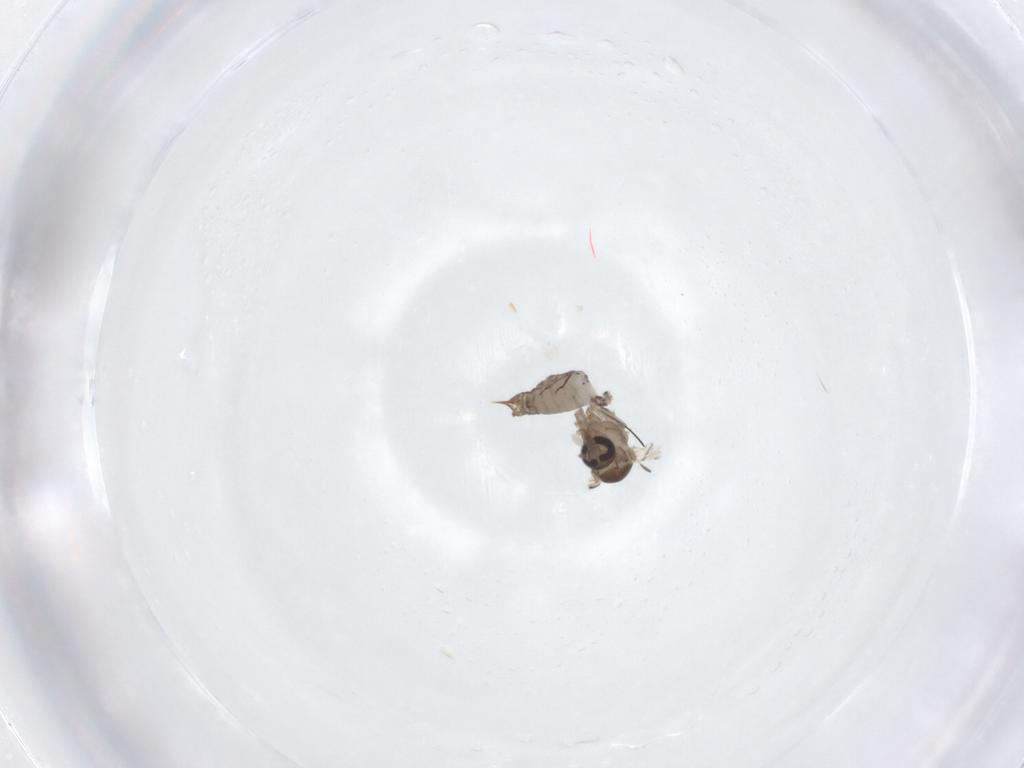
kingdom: Animalia
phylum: Arthropoda
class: Insecta
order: Diptera
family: Psychodidae
